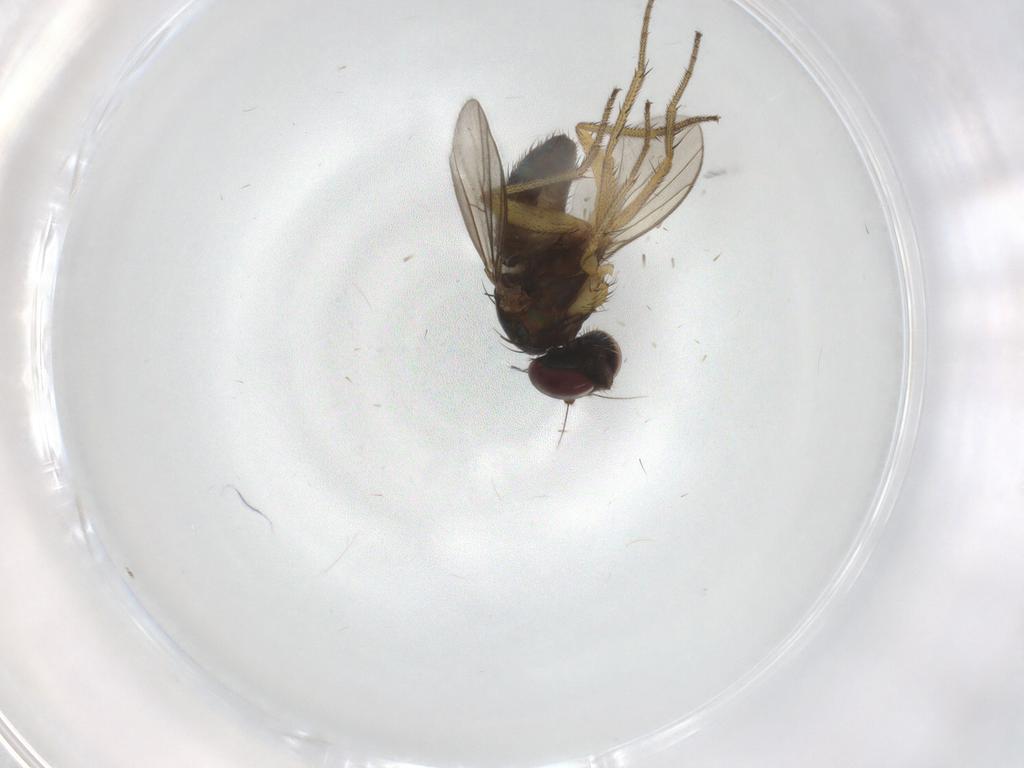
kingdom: Animalia
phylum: Arthropoda
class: Insecta
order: Diptera
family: Dolichopodidae
